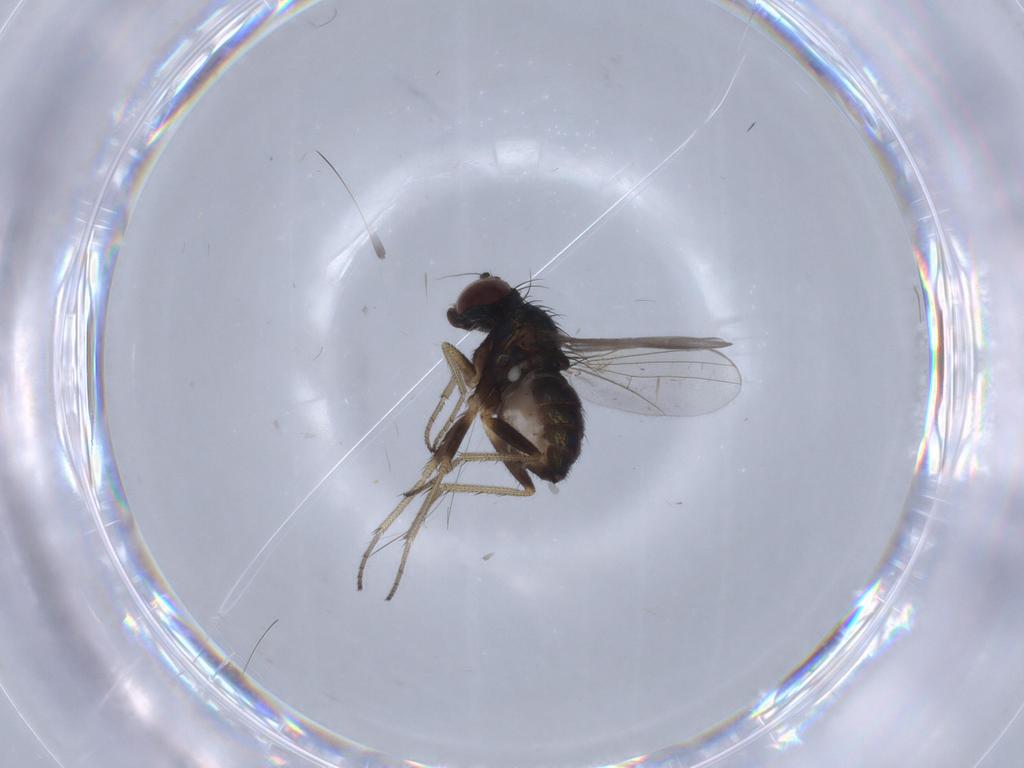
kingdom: Animalia
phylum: Arthropoda
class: Insecta
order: Diptera
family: Dolichopodidae
